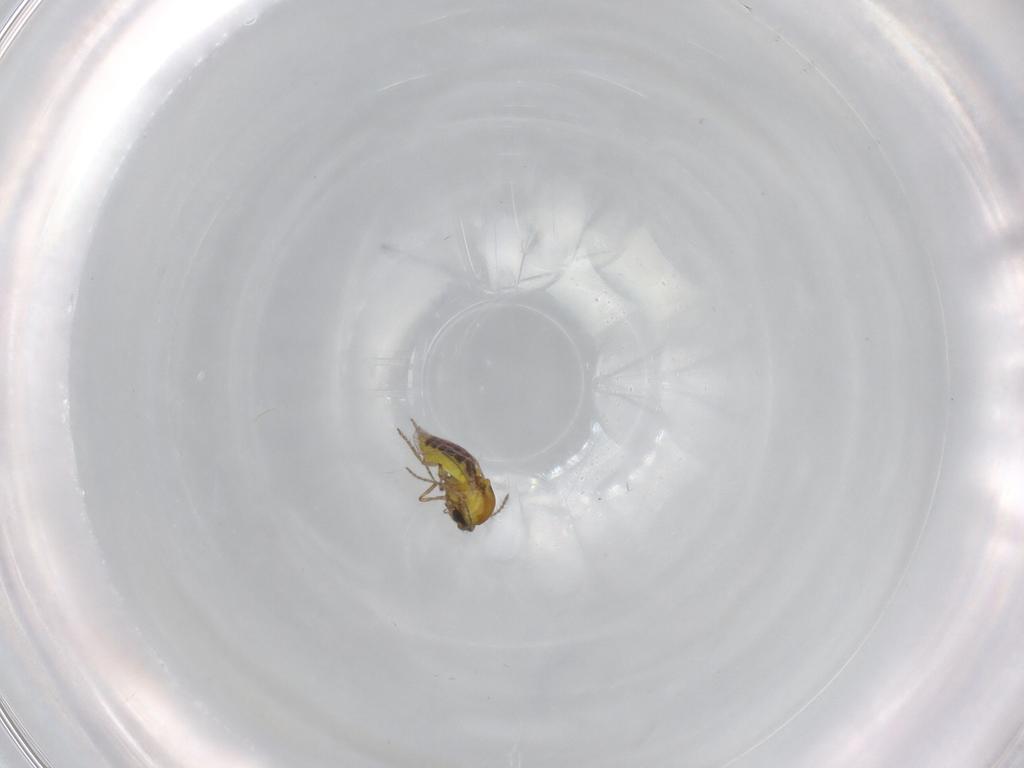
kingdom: Animalia
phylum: Arthropoda
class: Insecta
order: Diptera
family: Ceratopogonidae
